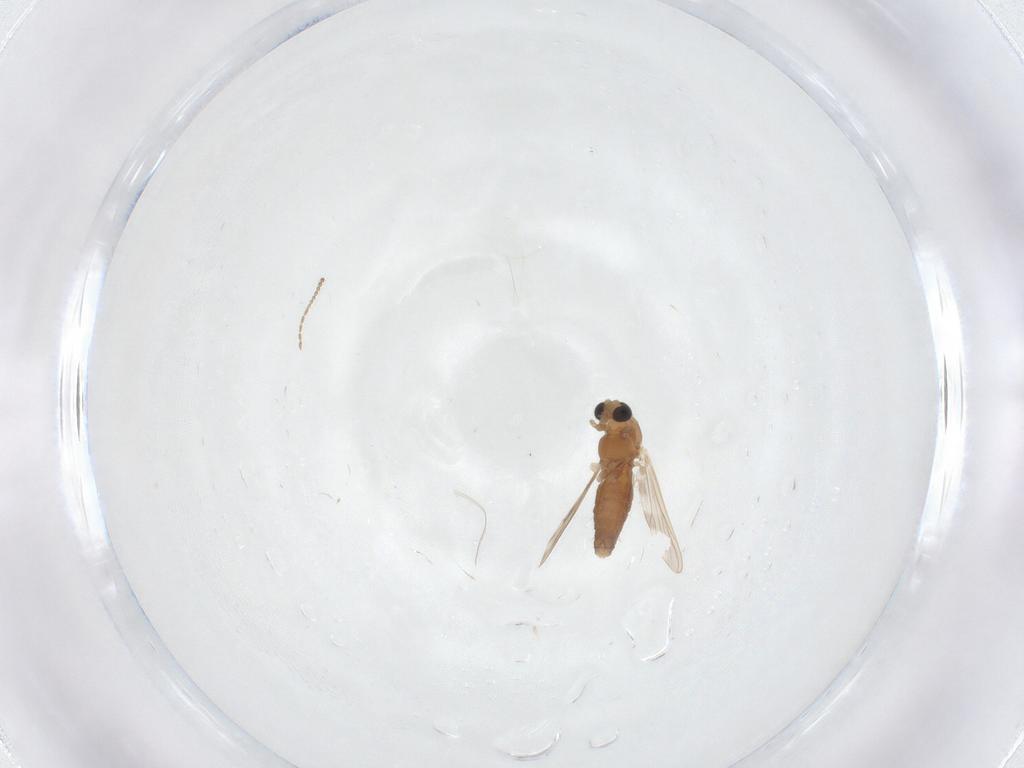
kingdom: Animalia
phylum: Arthropoda
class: Insecta
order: Diptera
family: Chironomidae
